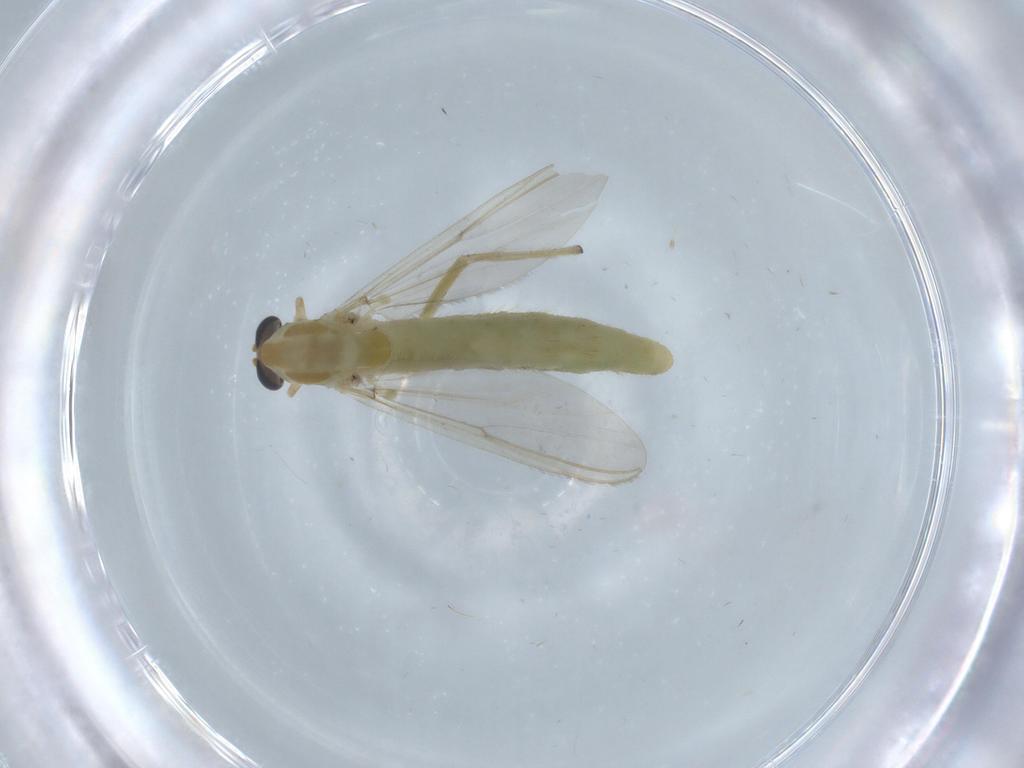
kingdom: Animalia
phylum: Arthropoda
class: Insecta
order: Diptera
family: Chironomidae
